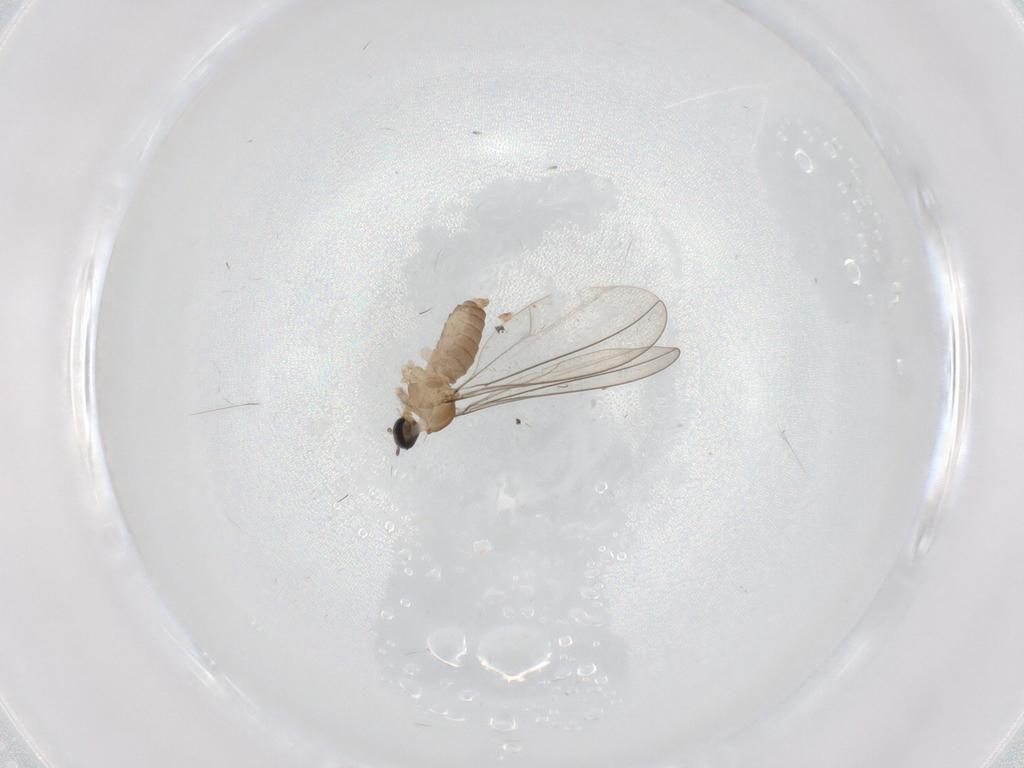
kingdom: Animalia
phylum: Arthropoda
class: Insecta
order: Diptera
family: Cecidomyiidae
